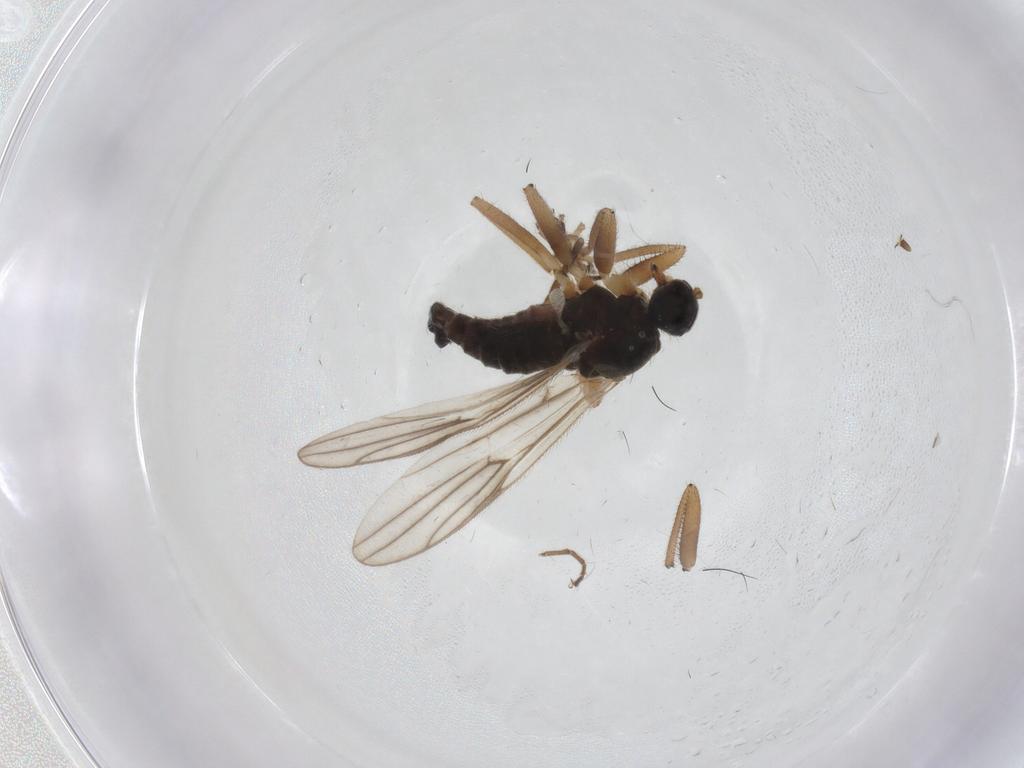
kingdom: Animalia
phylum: Arthropoda
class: Insecta
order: Diptera
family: Hybotidae
